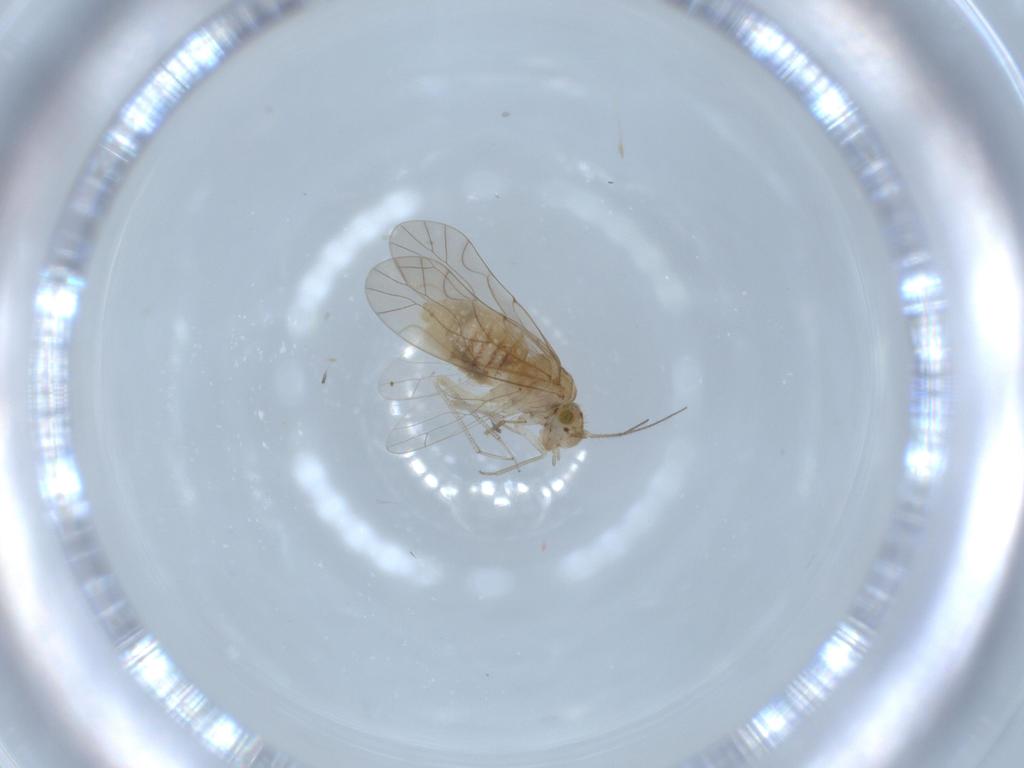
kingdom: Animalia
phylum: Arthropoda
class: Insecta
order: Psocodea
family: Lachesillidae
